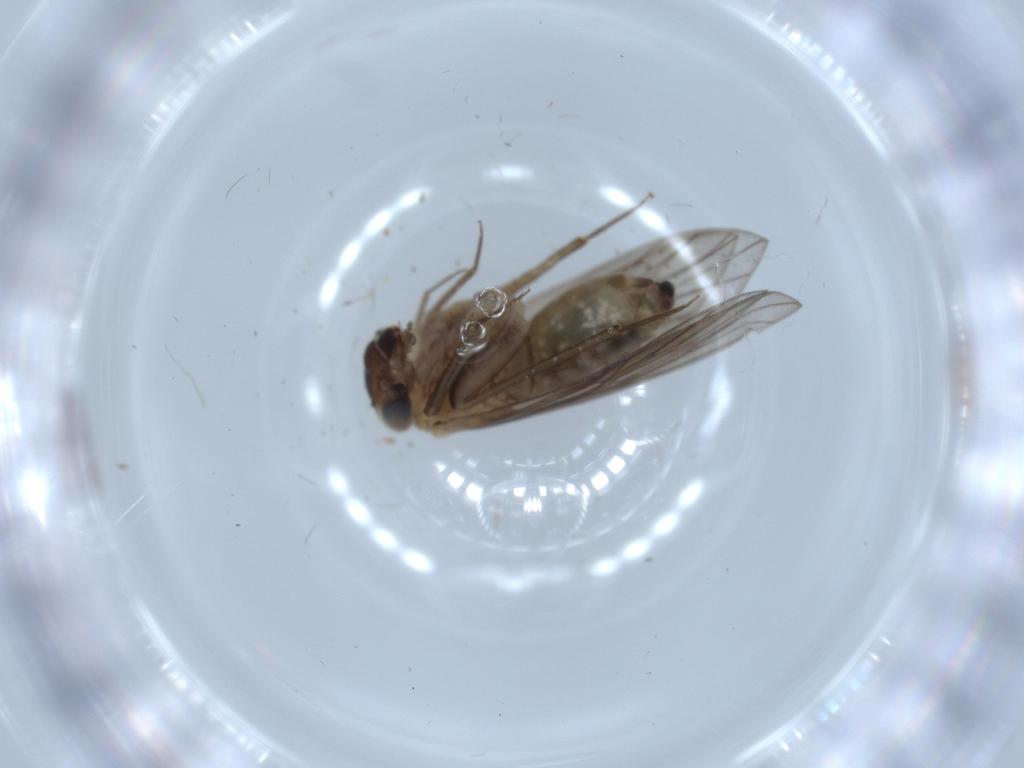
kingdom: Animalia
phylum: Arthropoda
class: Insecta
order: Psocodea
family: Lepidopsocidae
